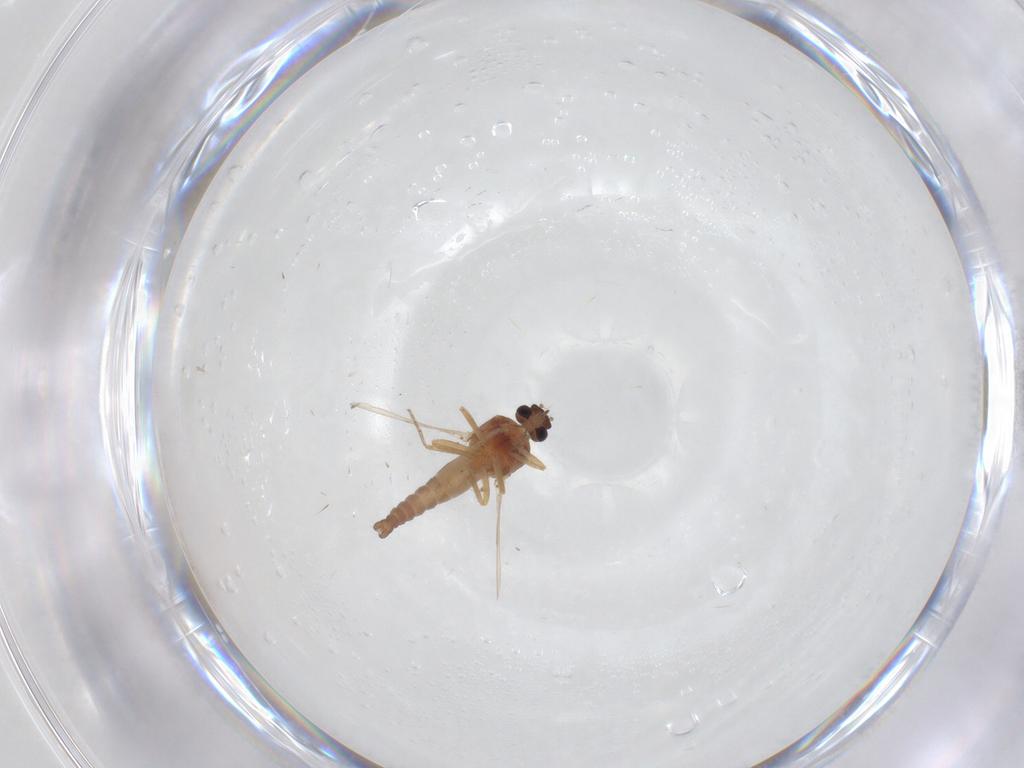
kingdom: Animalia
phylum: Arthropoda
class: Insecta
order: Diptera
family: Ceratopogonidae
